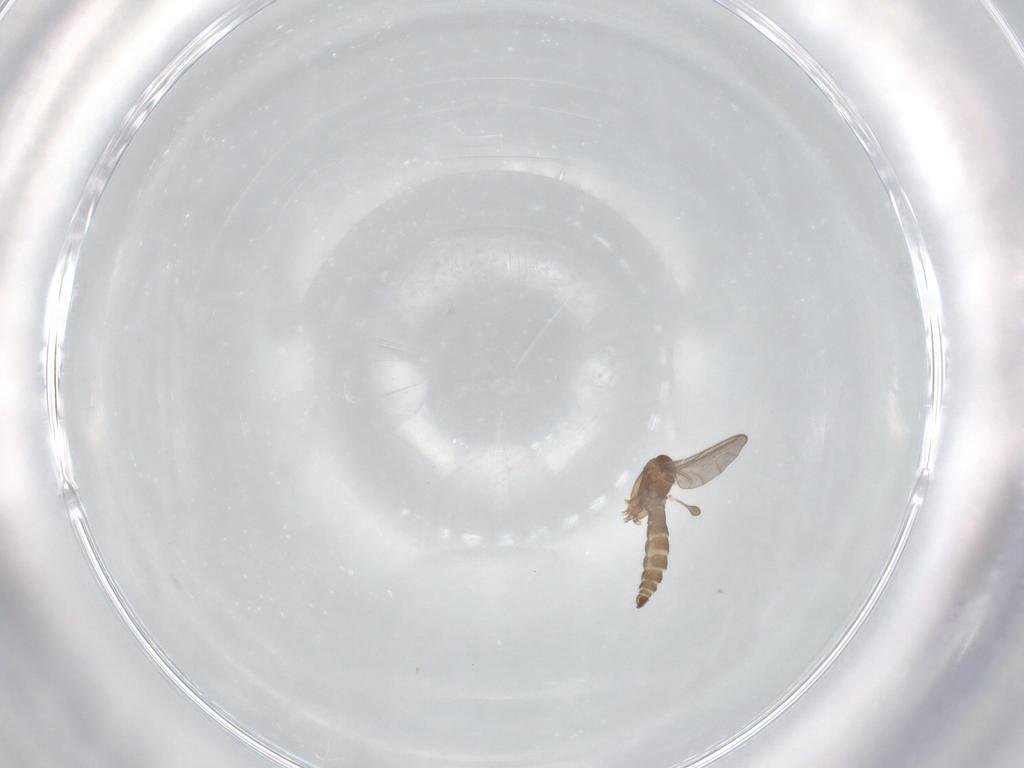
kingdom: Animalia
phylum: Arthropoda
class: Insecta
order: Diptera
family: Sciaridae
